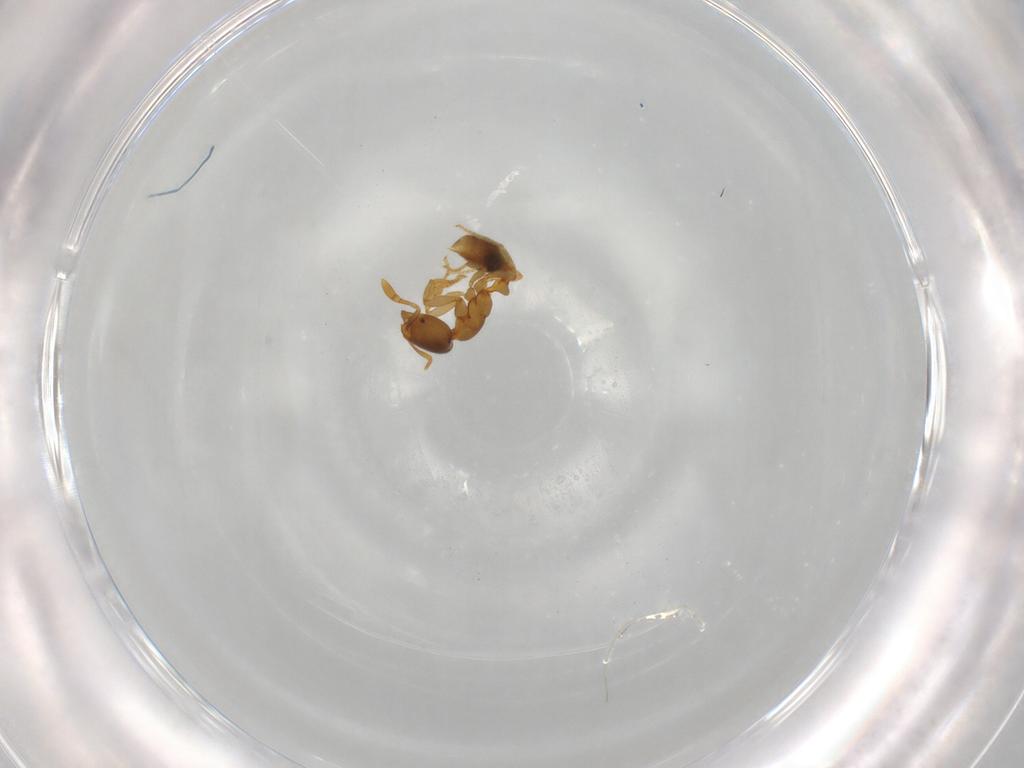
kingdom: Animalia
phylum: Arthropoda
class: Insecta
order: Hymenoptera
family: Formicidae
